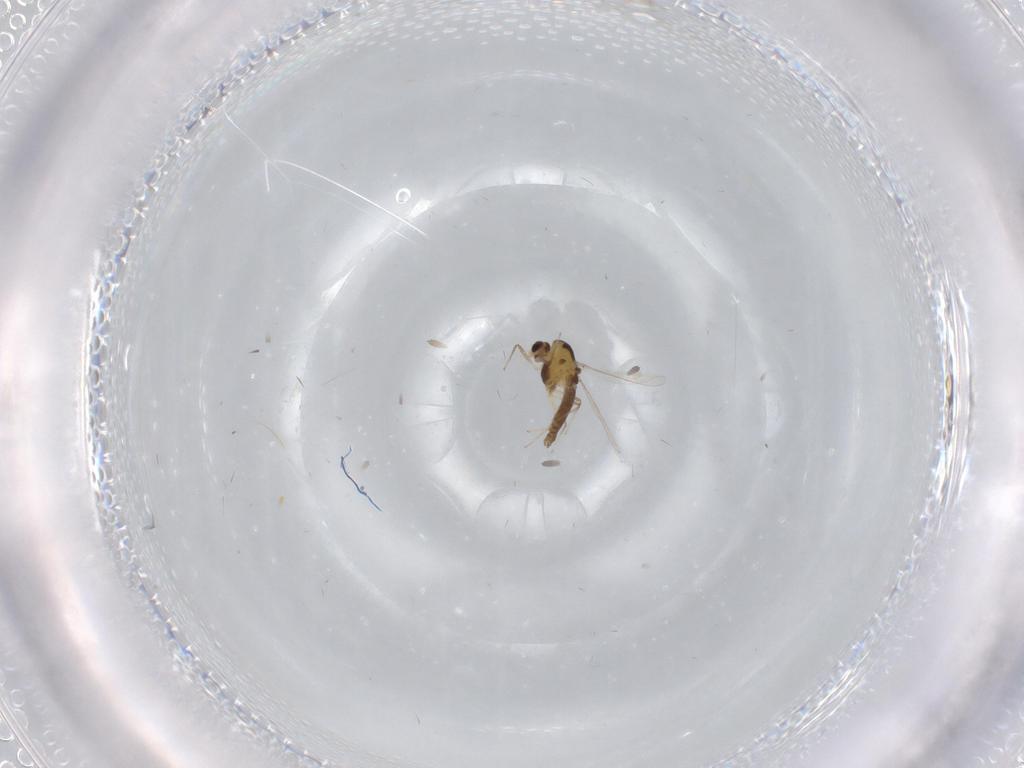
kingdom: Animalia
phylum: Arthropoda
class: Insecta
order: Diptera
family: Chironomidae
